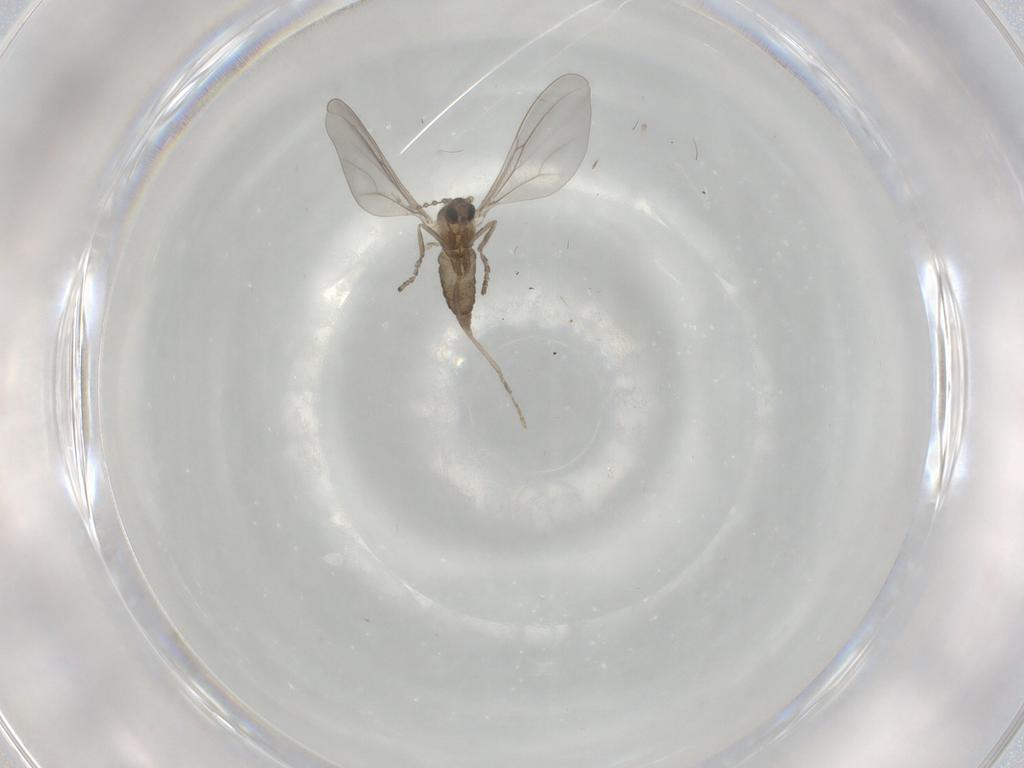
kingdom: Animalia
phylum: Arthropoda
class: Insecta
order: Diptera
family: Cecidomyiidae
